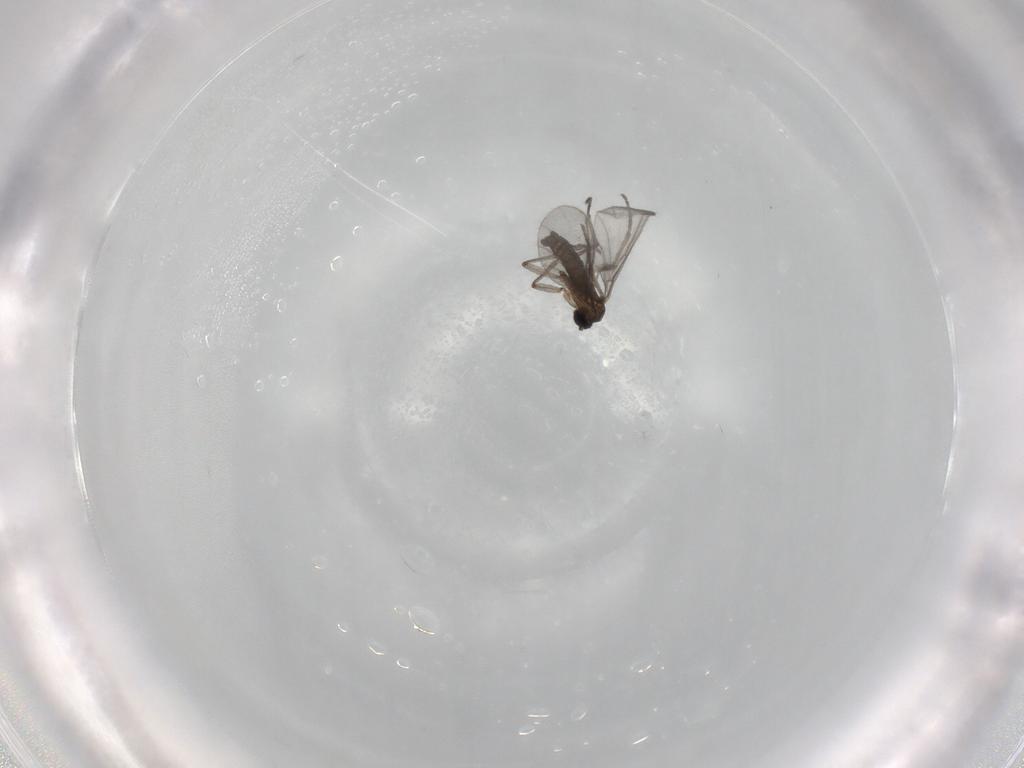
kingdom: Animalia
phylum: Arthropoda
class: Insecta
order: Diptera
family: Sciaridae
